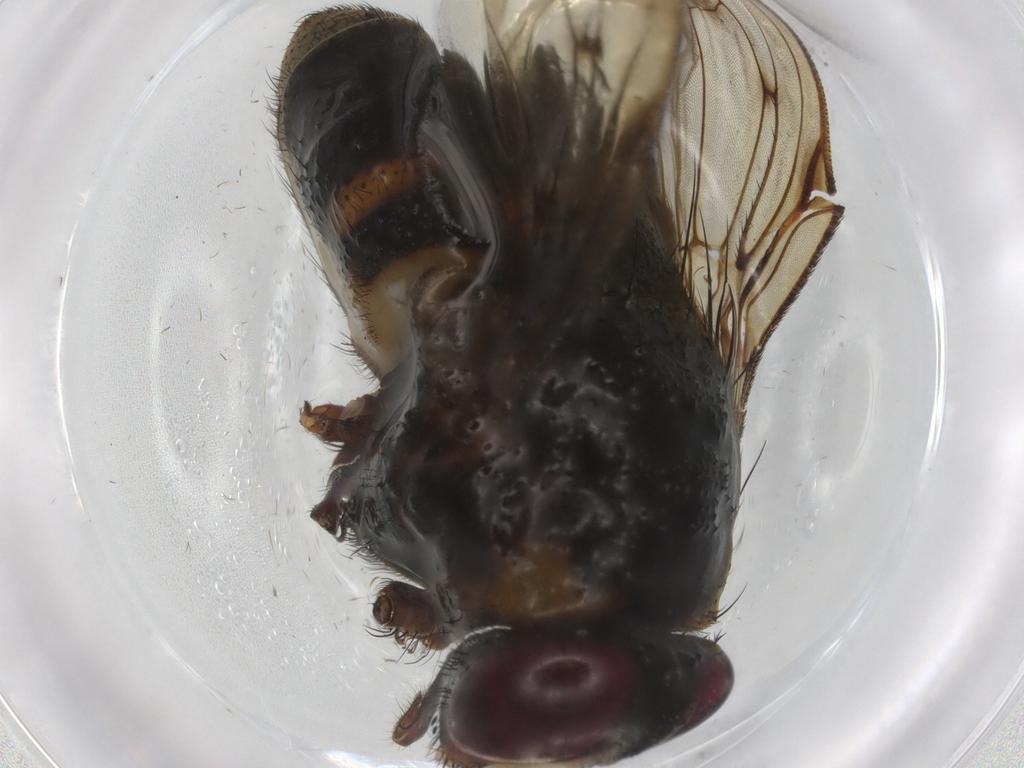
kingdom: Animalia
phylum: Arthropoda
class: Insecta
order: Diptera
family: Muscidae
